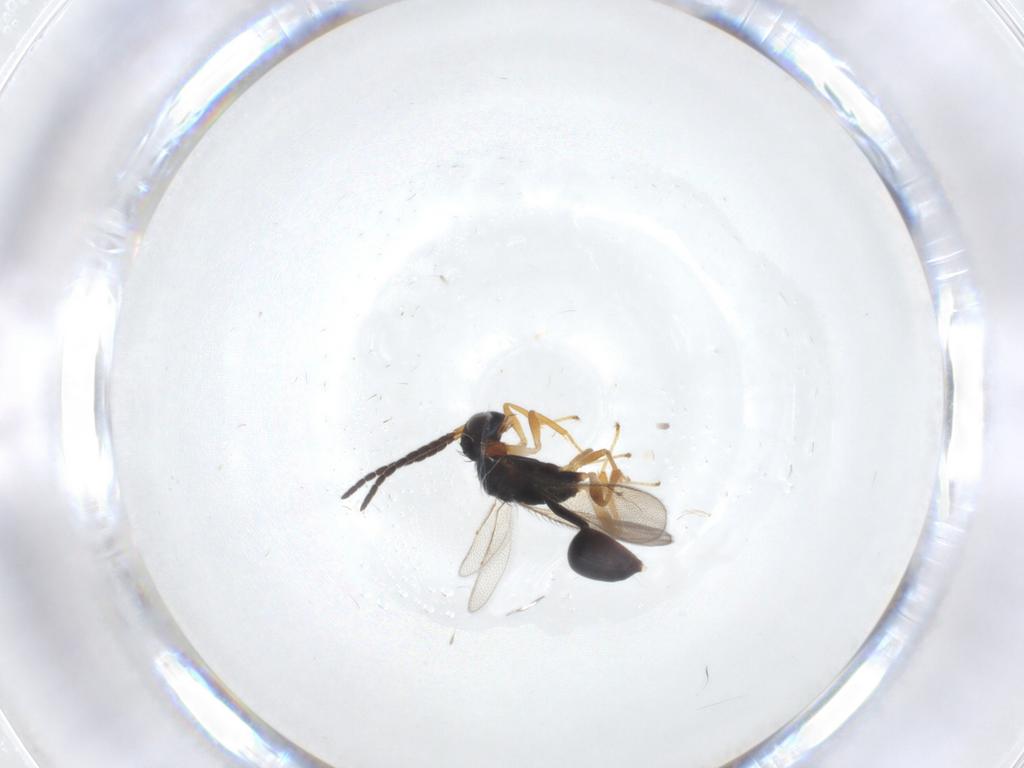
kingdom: Animalia
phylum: Arthropoda
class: Insecta
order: Hymenoptera
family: Diparidae
